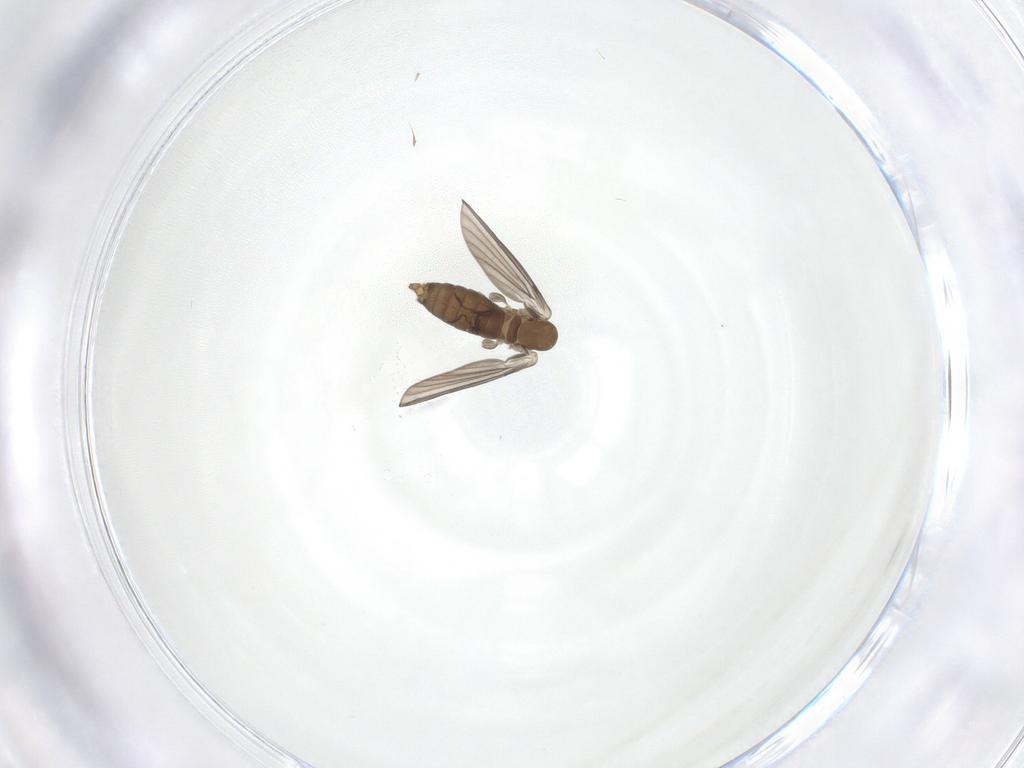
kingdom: Animalia
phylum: Arthropoda
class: Insecta
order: Diptera
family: Psychodidae
